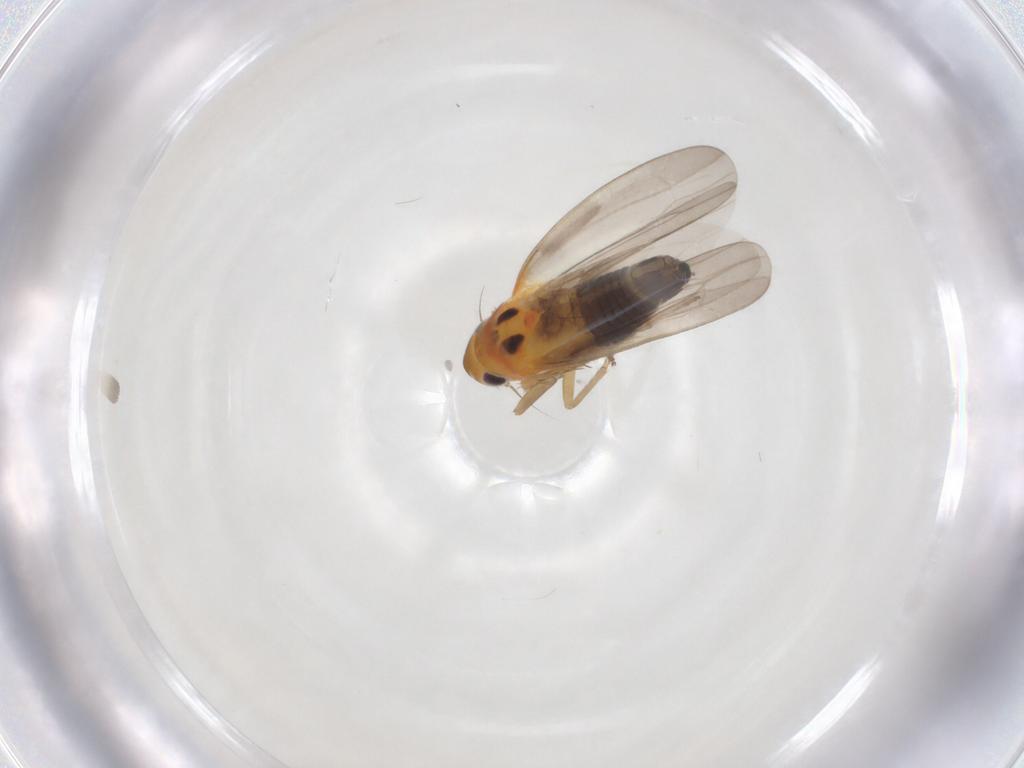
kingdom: Animalia
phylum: Arthropoda
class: Insecta
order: Hemiptera
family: Cicadellidae
